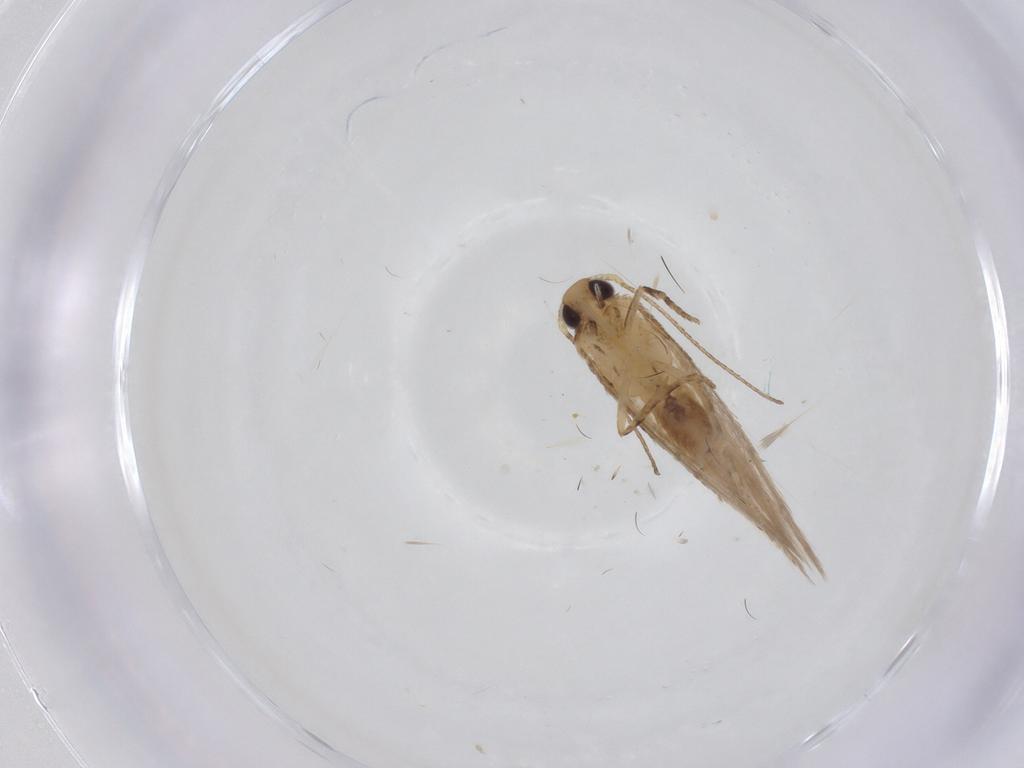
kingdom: Animalia
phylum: Arthropoda
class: Insecta
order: Lepidoptera
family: Gelechiidae
